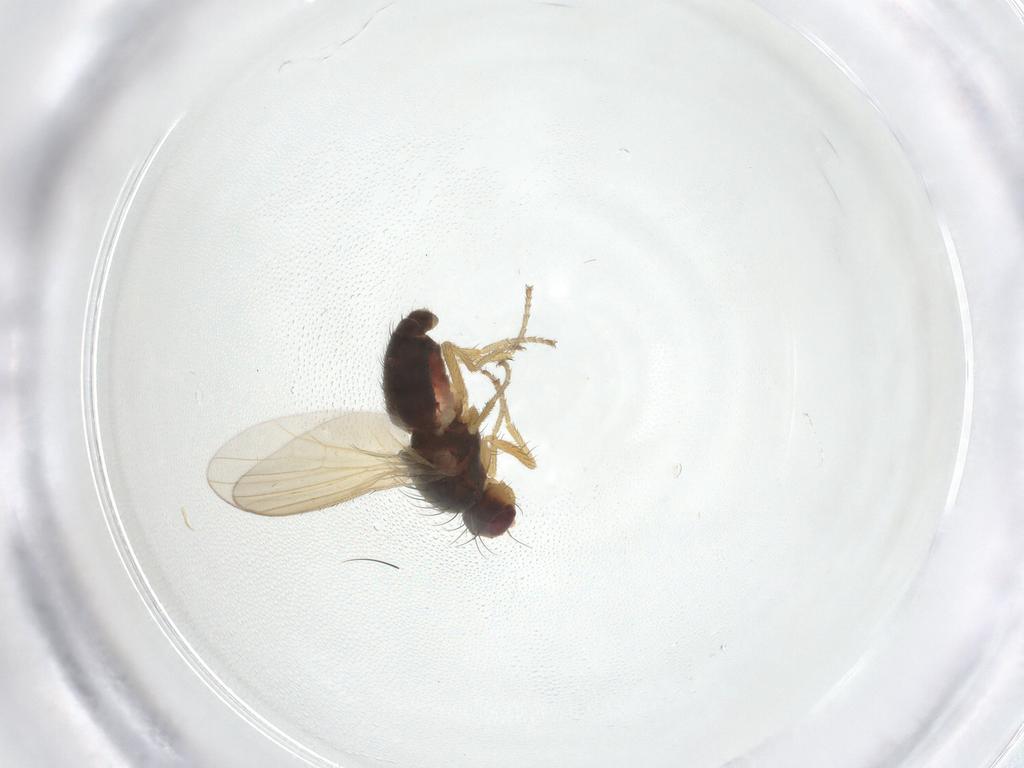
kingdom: Animalia
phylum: Arthropoda
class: Insecta
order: Diptera
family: Heleomyzidae
